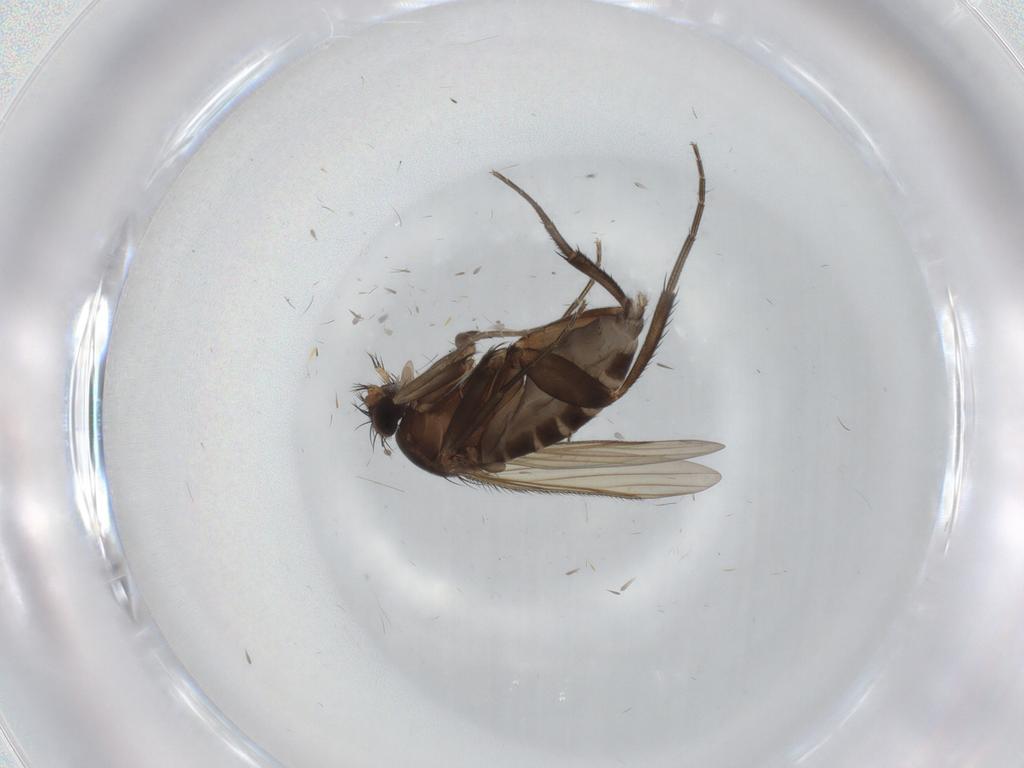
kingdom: Animalia
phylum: Arthropoda
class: Insecta
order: Diptera
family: Phoridae
